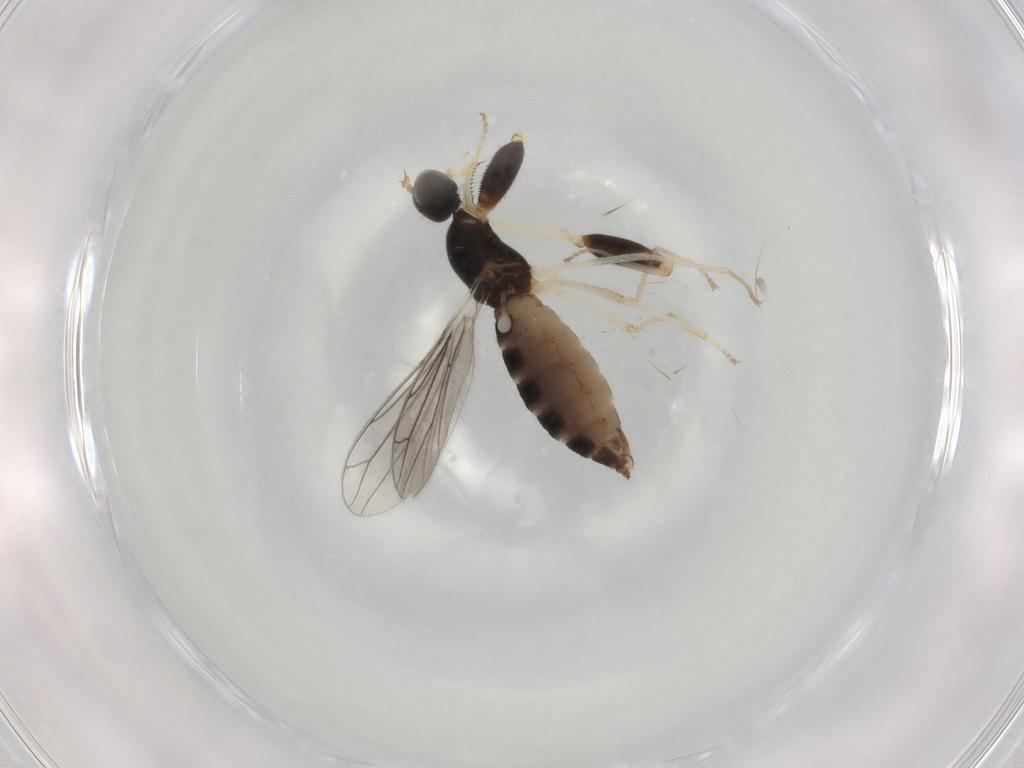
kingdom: Animalia
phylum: Arthropoda
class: Insecta
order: Diptera
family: Empididae
